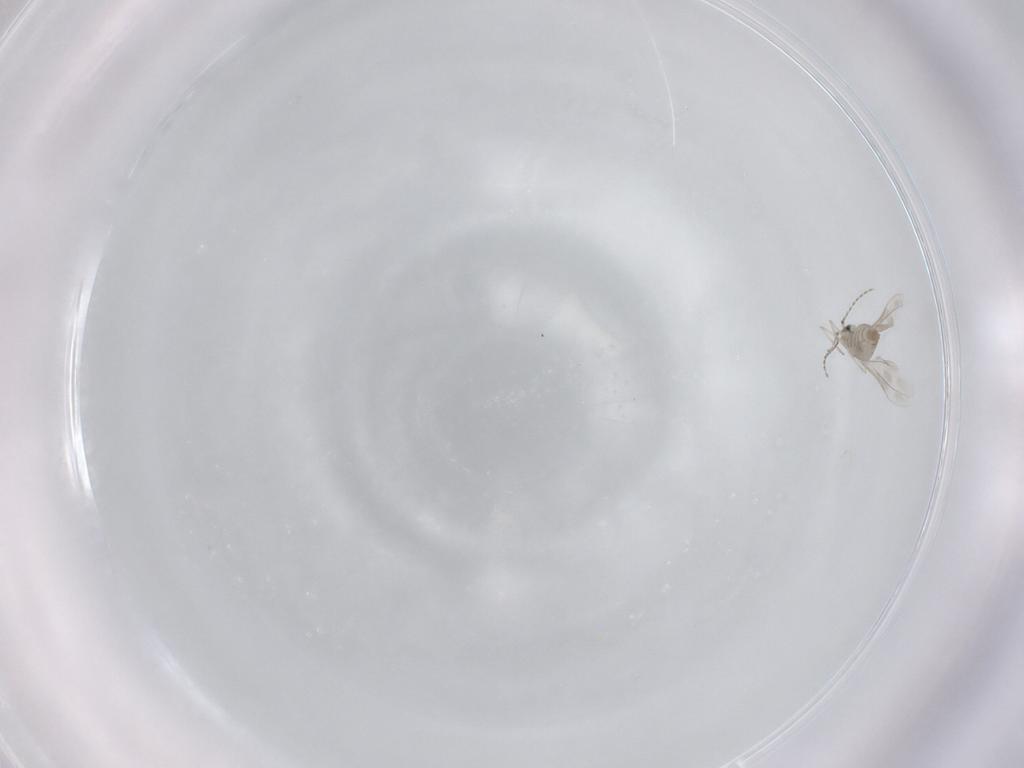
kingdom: Animalia
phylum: Arthropoda
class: Insecta
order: Diptera
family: Cecidomyiidae
